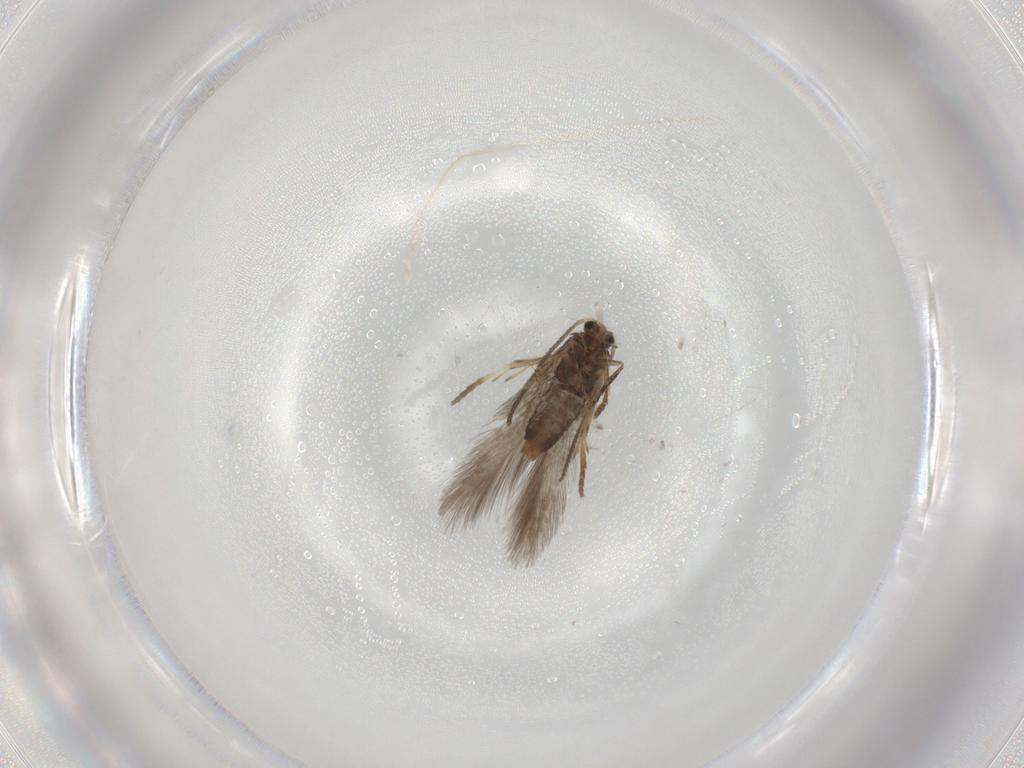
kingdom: Animalia
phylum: Arthropoda
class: Insecta
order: Lepidoptera
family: Nepticulidae
